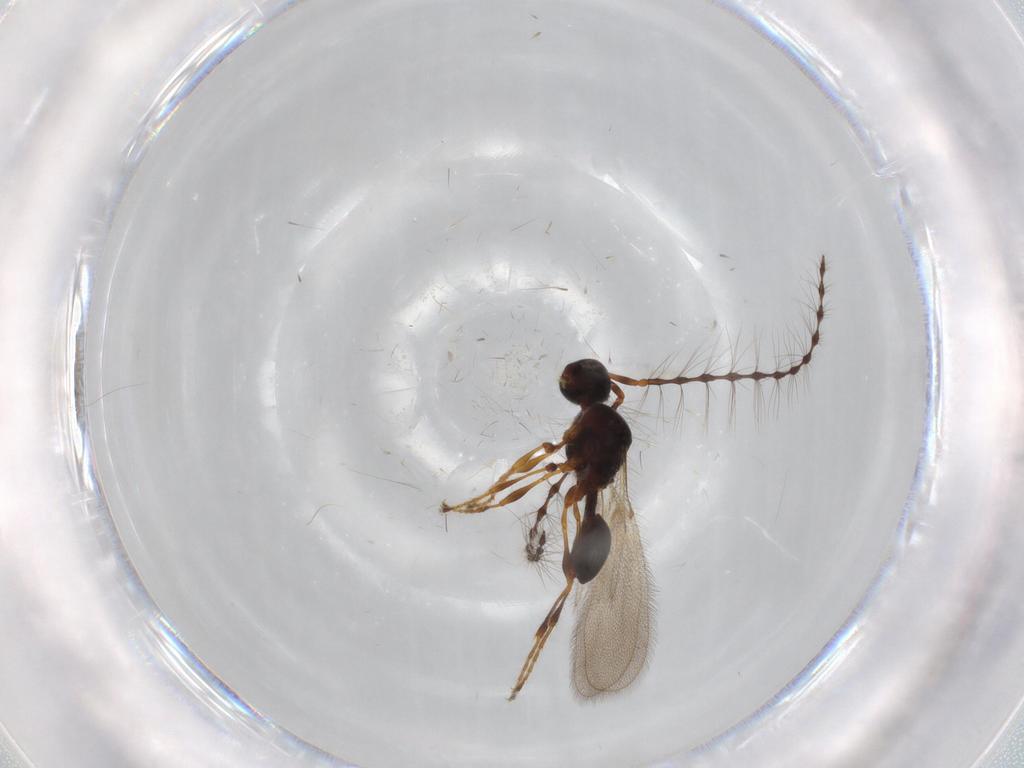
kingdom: Animalia
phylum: Arthropoda
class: Insecta
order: Hymenoptera
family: Diapriidae
